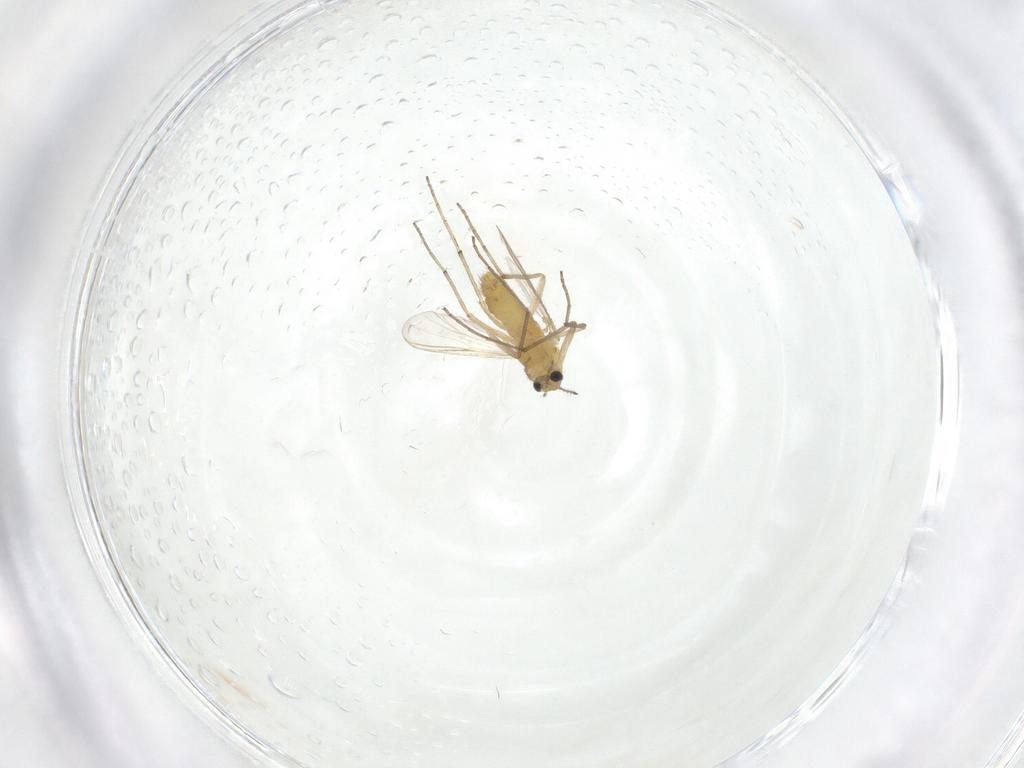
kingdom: Animalia
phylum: Arthropoda
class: Insecta
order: Diptera
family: Chironomidae
